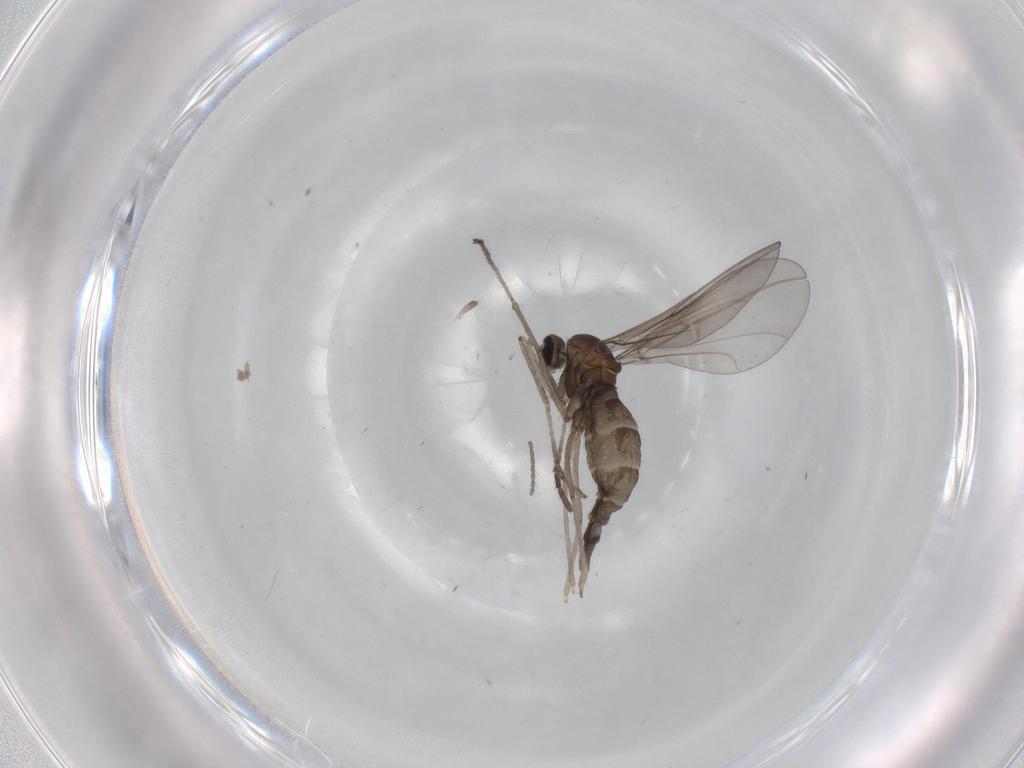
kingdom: Animalia
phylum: Arthropoda
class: Insecta
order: Diptera
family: Cecidomyiidae
